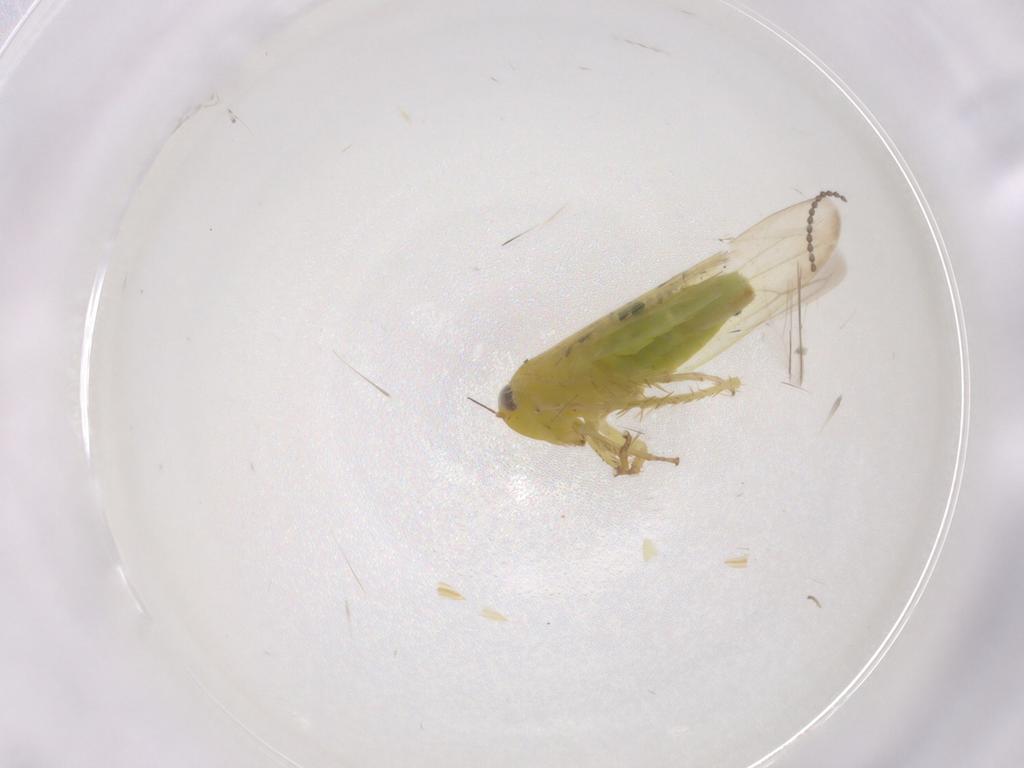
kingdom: Animalia
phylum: Arthropoda
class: Insecta
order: Hemiptera
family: Cicadellidae
